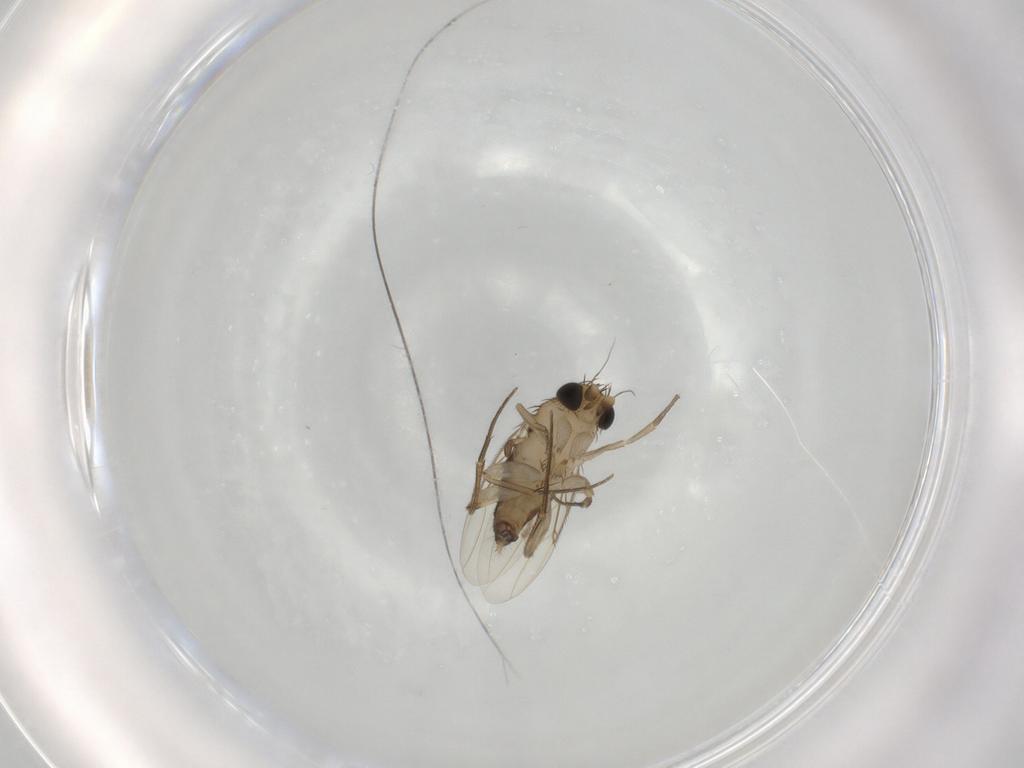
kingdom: Animalia
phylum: Arthropoda
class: Insecta
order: Diptera
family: Phoridae
